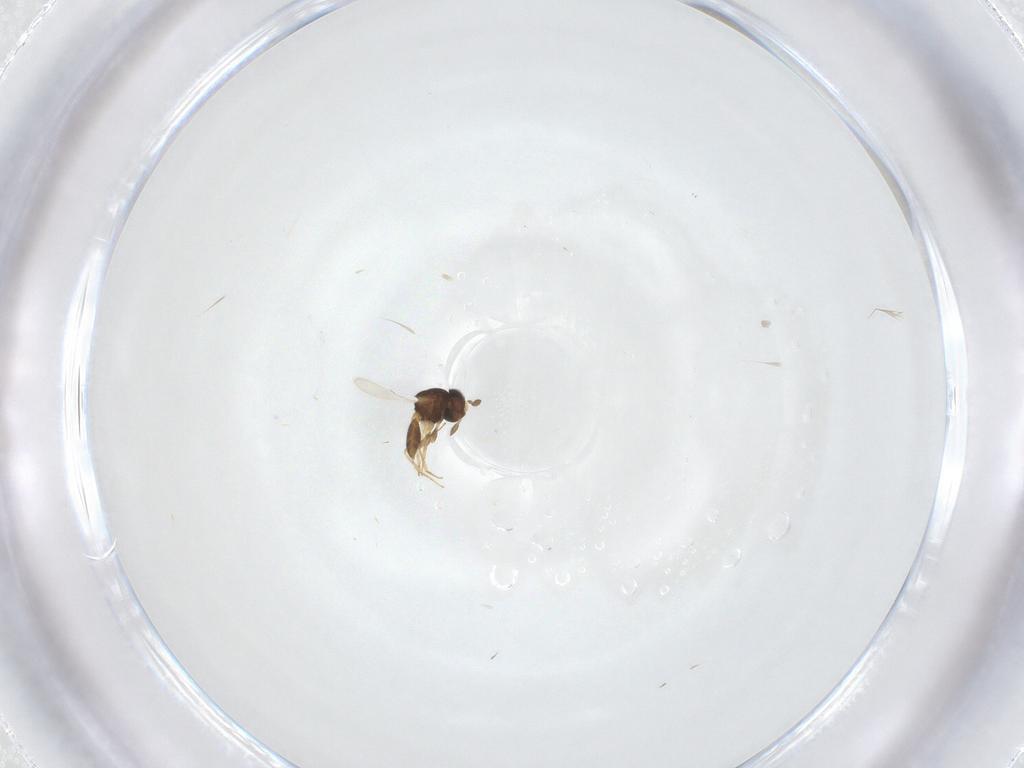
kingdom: Animalia
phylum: Arthropoda
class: Insecta
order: Hymenoptera
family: Scelionidae
